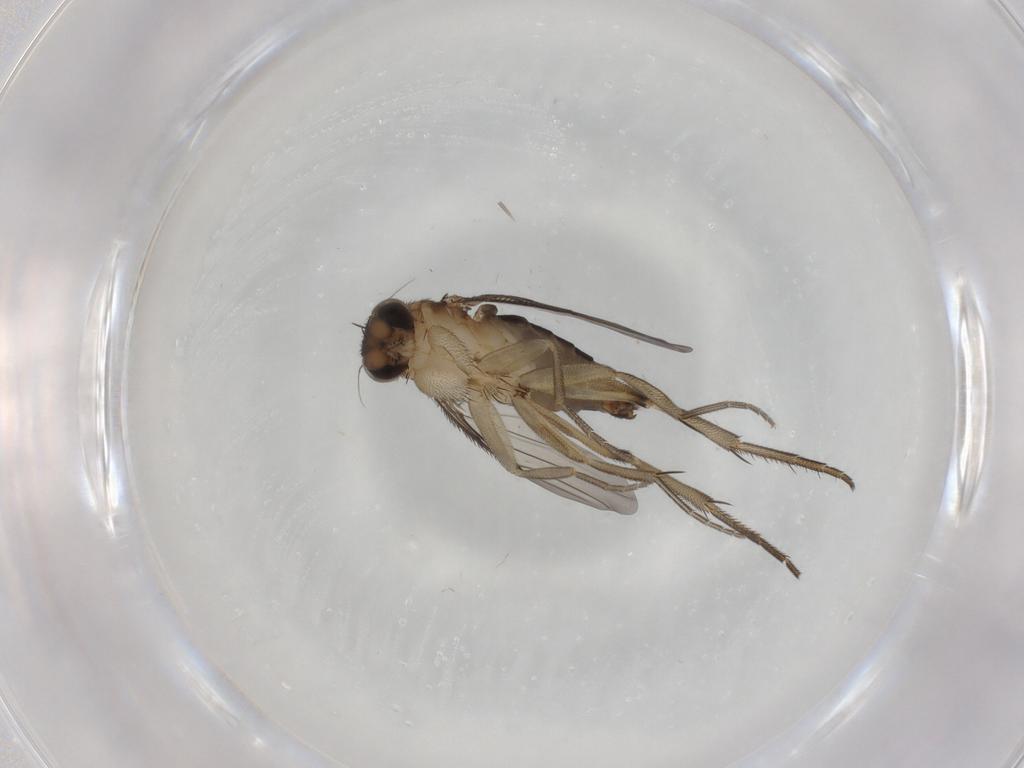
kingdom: Animalia
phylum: Arthropoda
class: Insecta
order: Diptera
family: Phoridae
